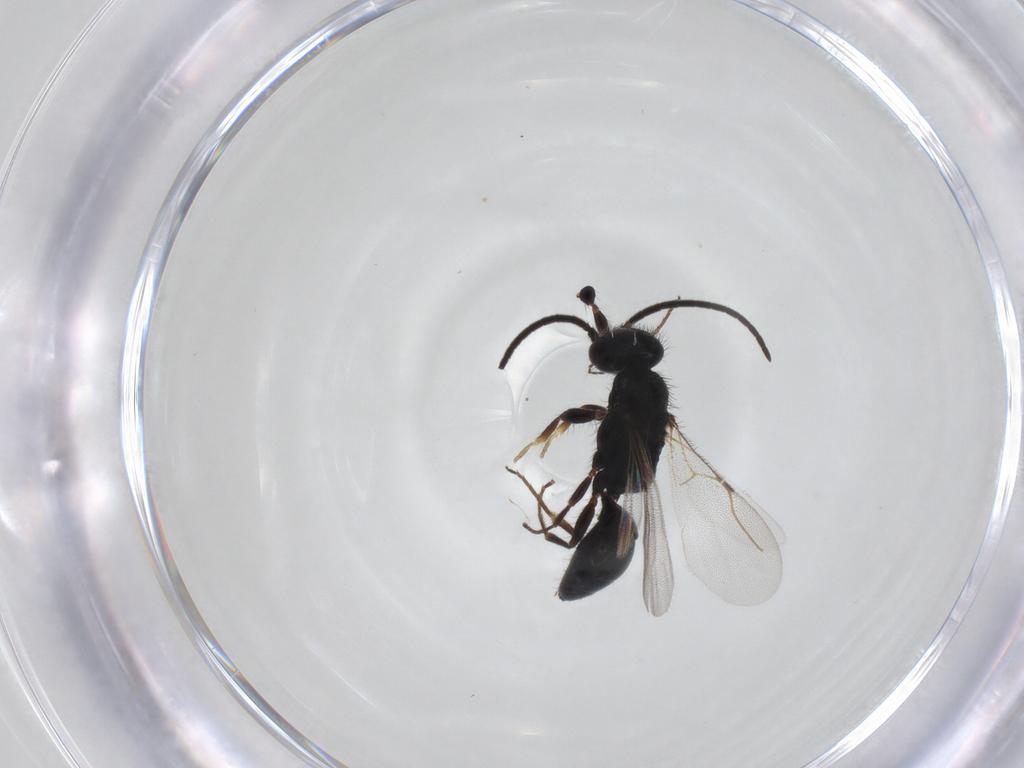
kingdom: Animalia
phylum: Arthropoda
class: Insecta
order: Hymenoptera
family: Bethylidae
